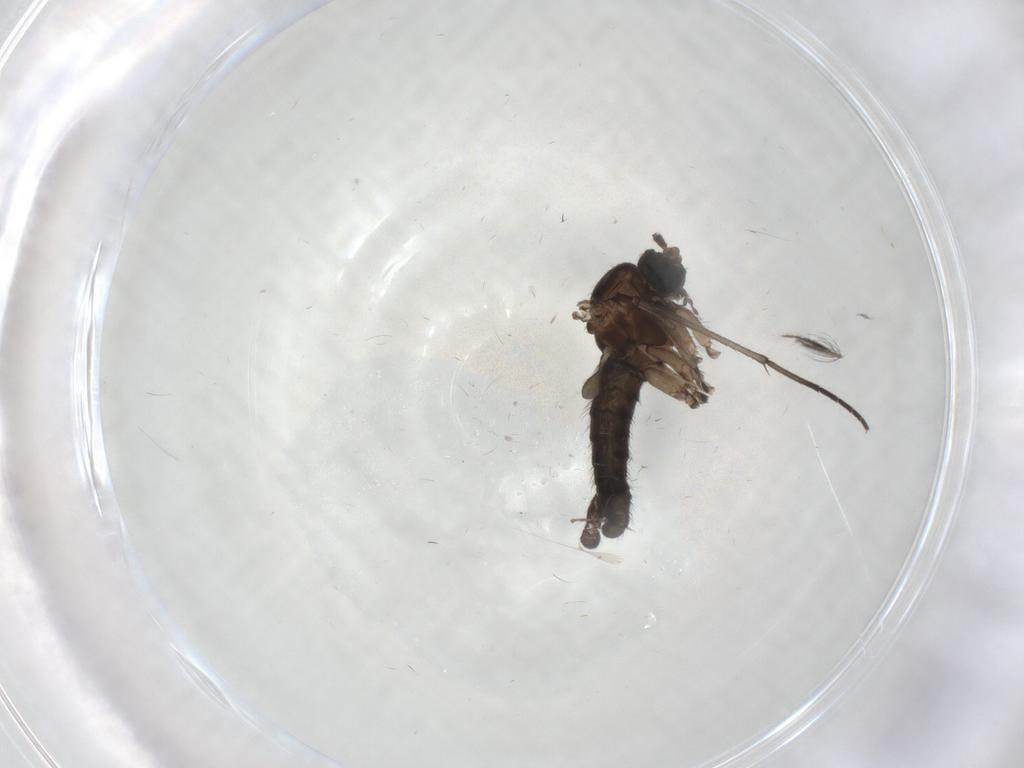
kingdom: Animalia
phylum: Arthropoda
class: Insecta
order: Diptera
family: Sciaridae
